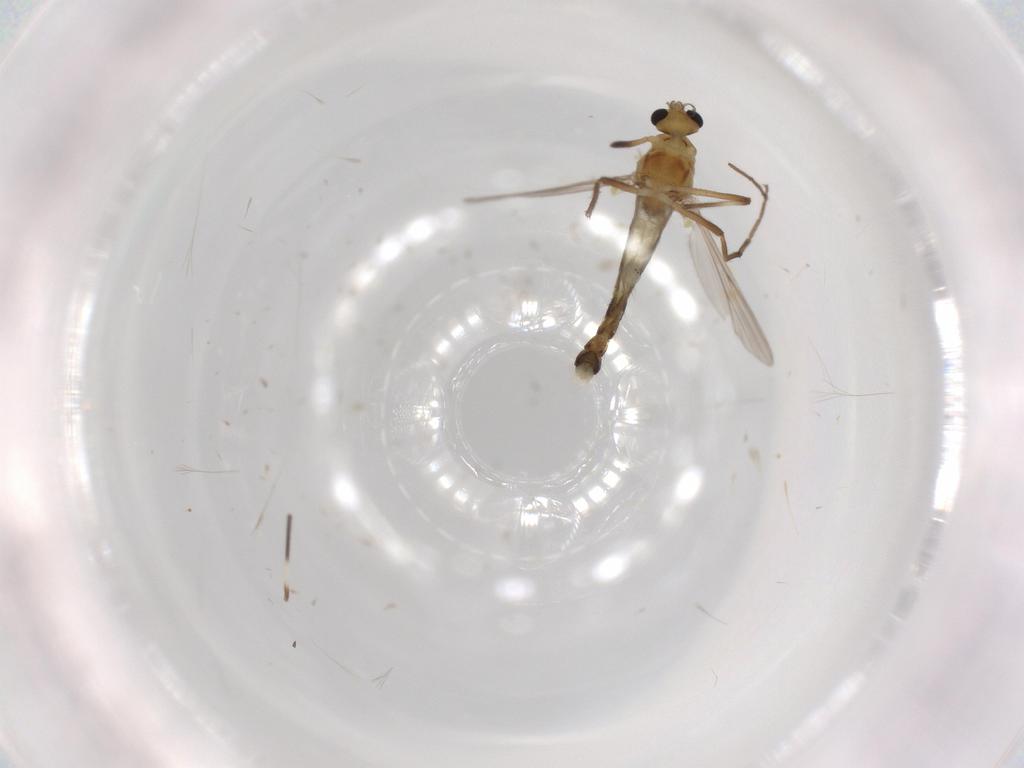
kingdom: Animalia
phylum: Arthropoda
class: Insecta
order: Diptera
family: Chironomidae
